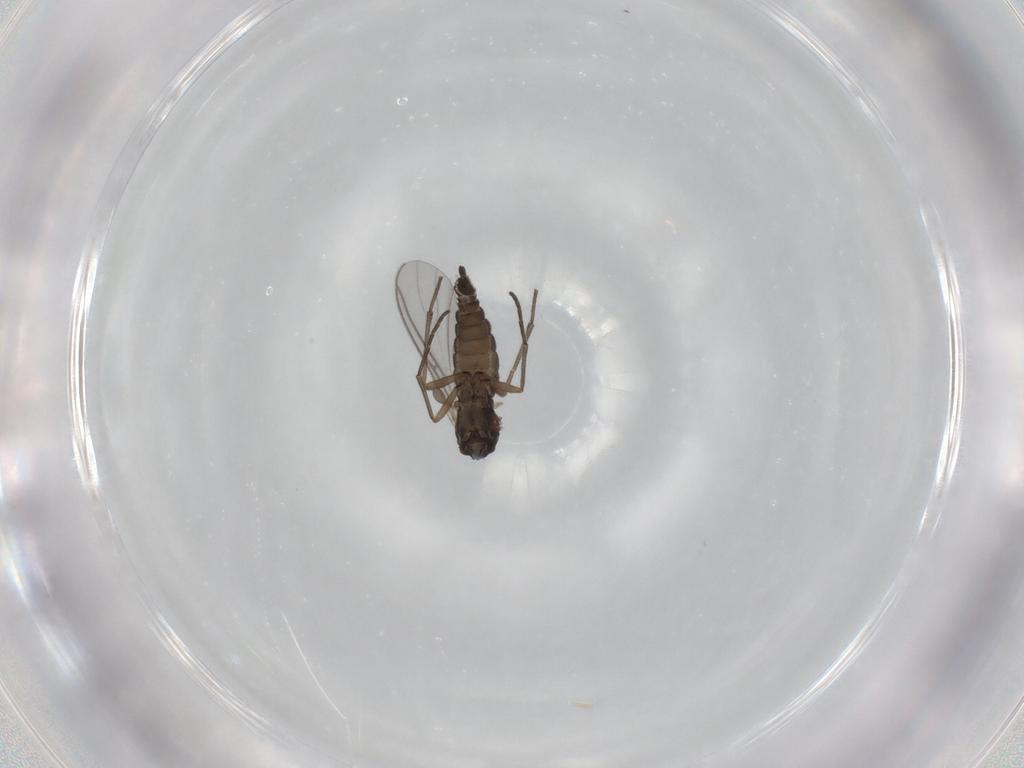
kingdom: Animalia
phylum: Arthropoda
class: Insecta
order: Diptera
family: Sciaridae
